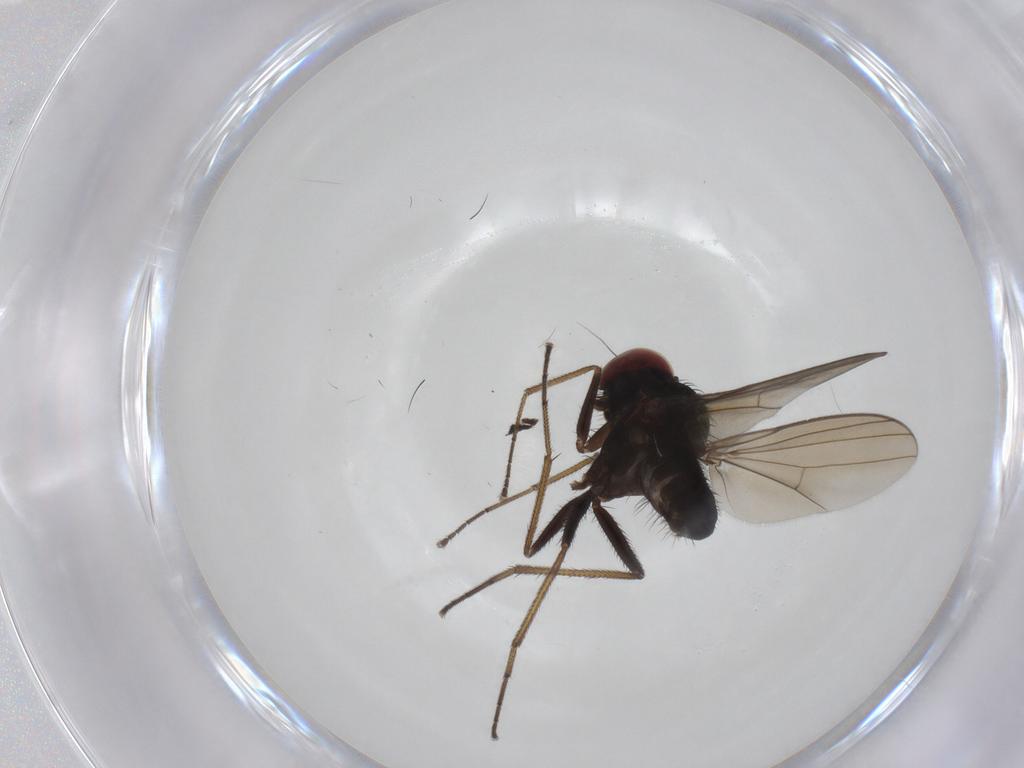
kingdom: Animalia
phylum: Arthropoda
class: Insecta
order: Diptera
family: Dolichopodidae
